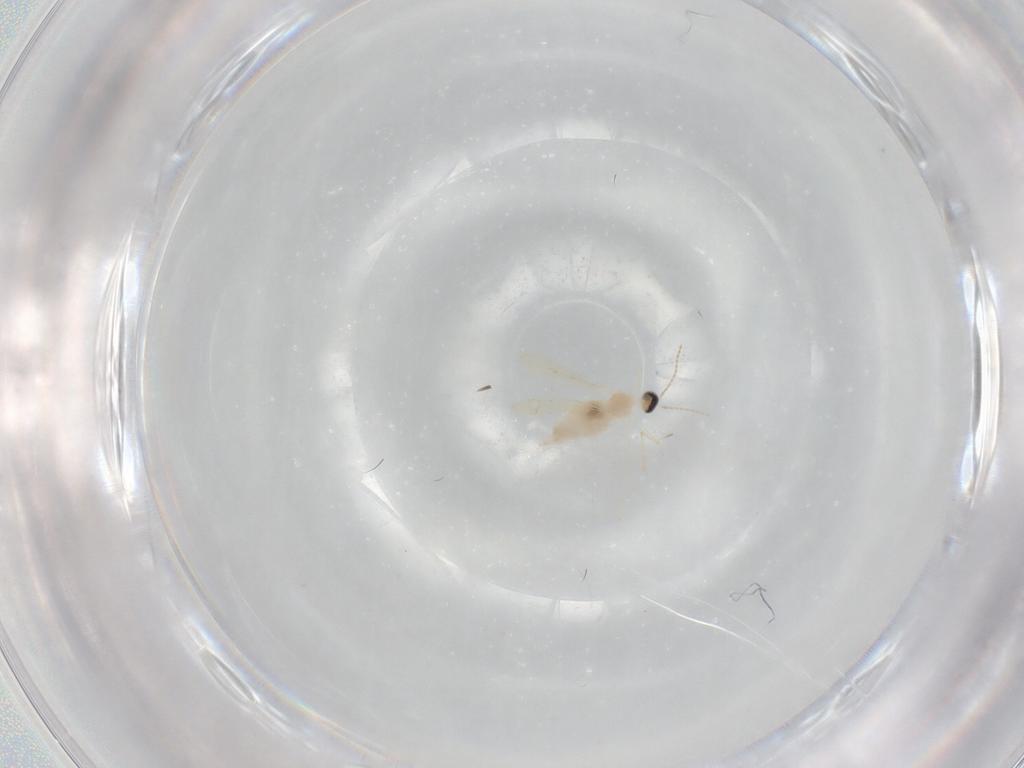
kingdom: Animalia
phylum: Arthropoda
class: Insecta
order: Diptera
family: Cecidomyiidae
